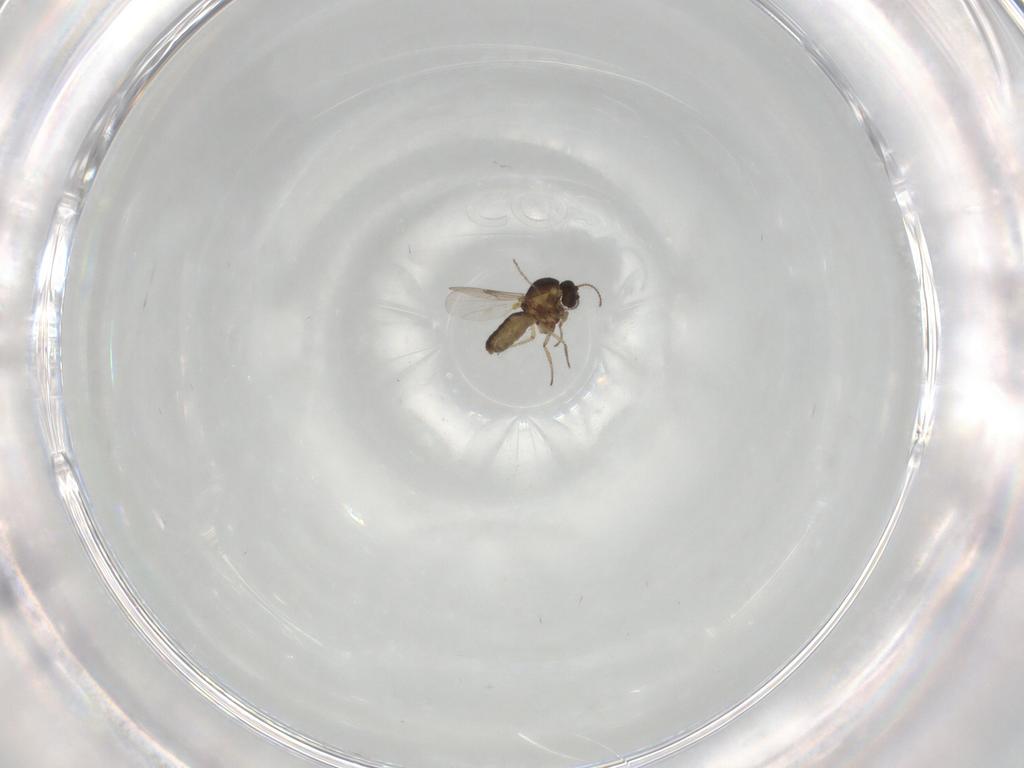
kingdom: Animalia
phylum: Arthropoda
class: Insecta
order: Diptera
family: Ceratopogonidae
